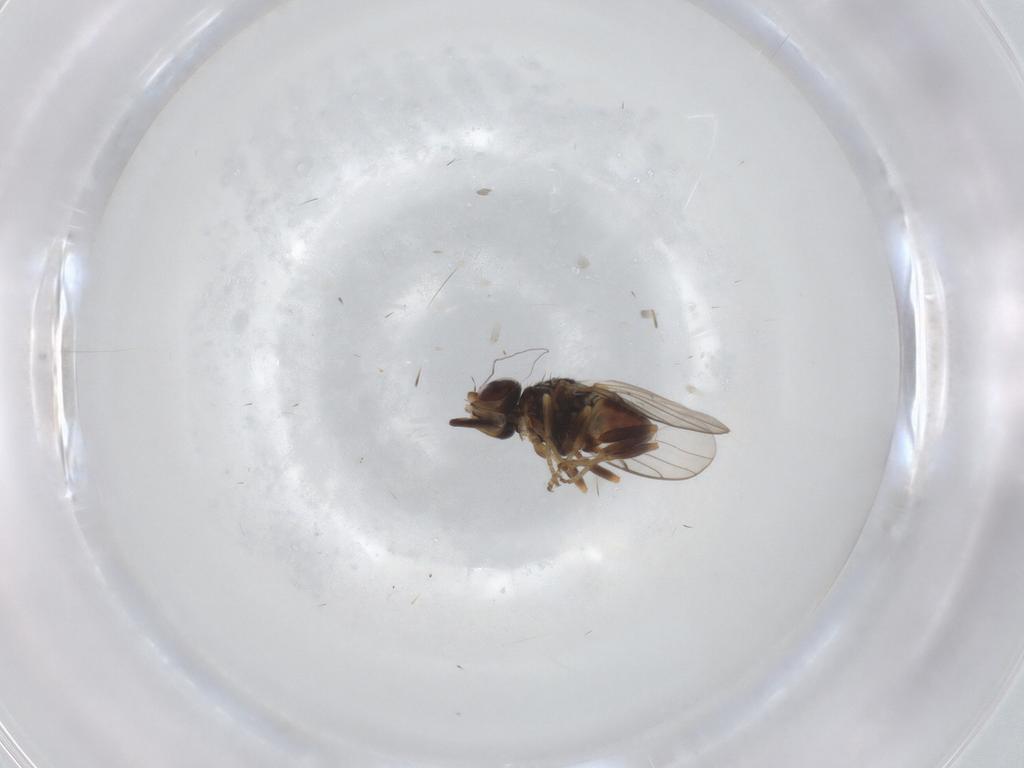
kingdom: Animalia
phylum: Arthropoda
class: Insecta
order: Diptera
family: Chloropidae
